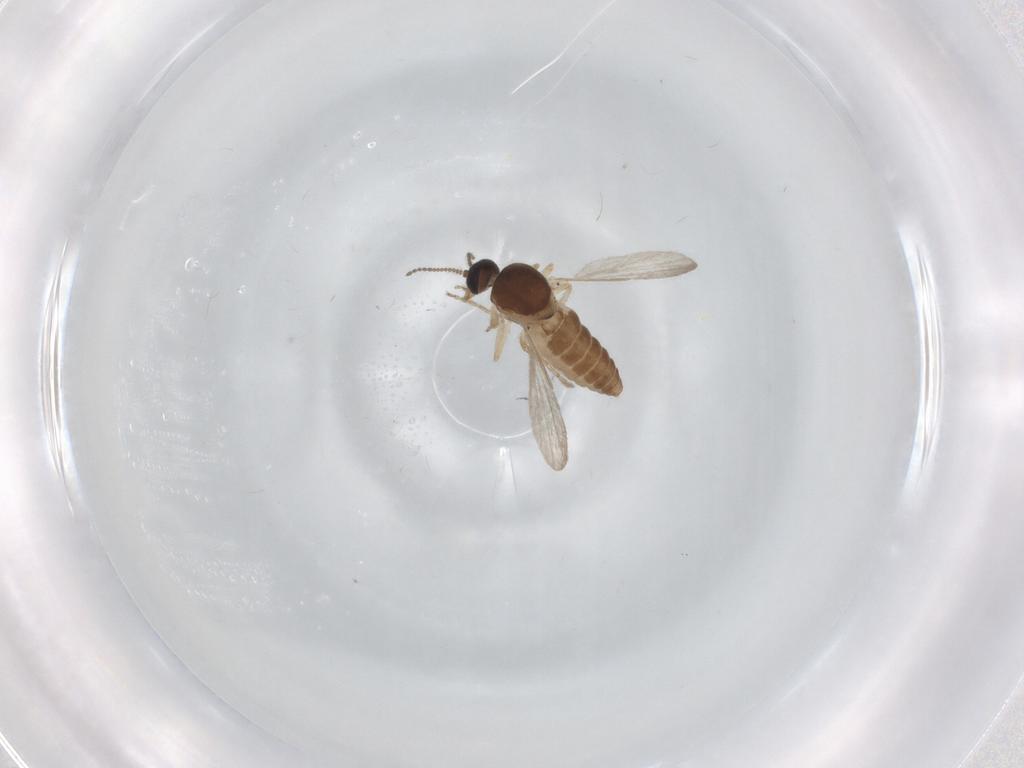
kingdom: Animalia
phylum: Arthropoda
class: Insecta
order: Diptera
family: Ceratopogonidae
